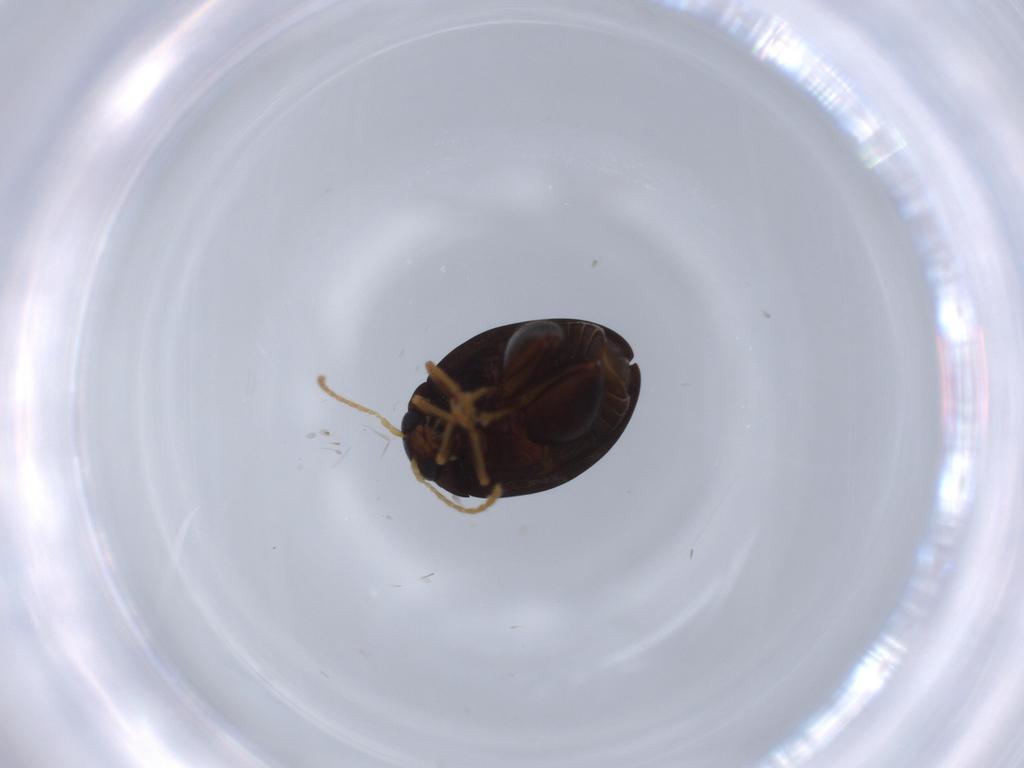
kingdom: Animalia
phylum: Arthropoda
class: Insecta
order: Coleoptera
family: Chrysomelidae
